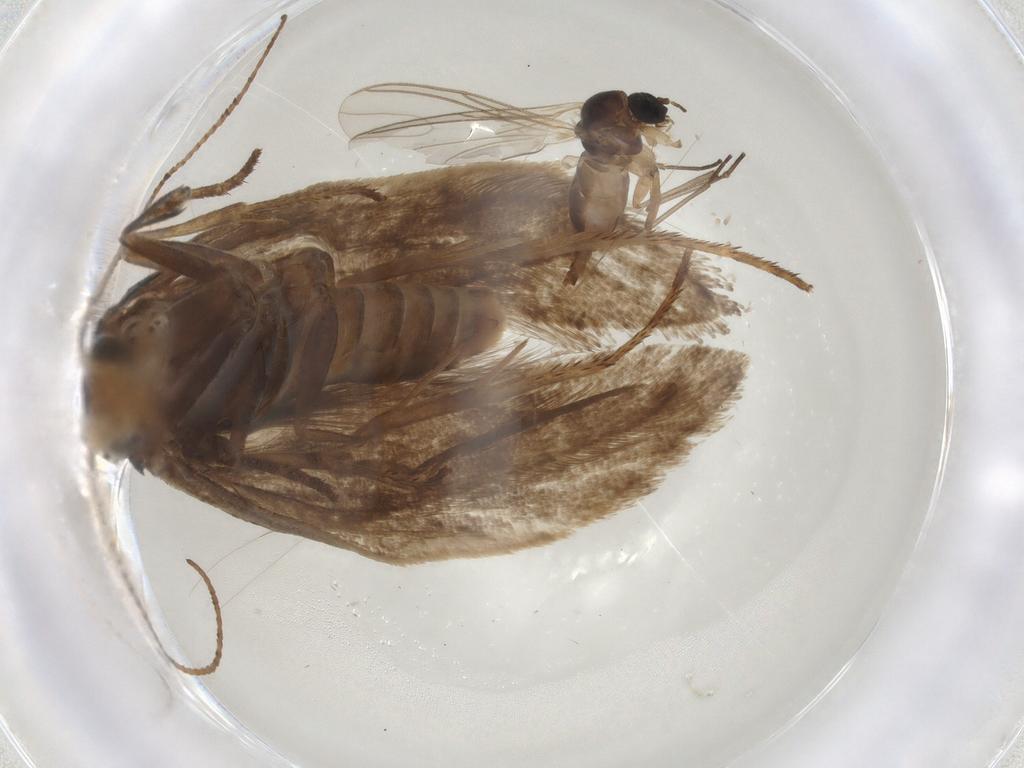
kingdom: Animalia
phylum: Arthropoda
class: Insecta
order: Lepidoptera
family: Plutellidae
